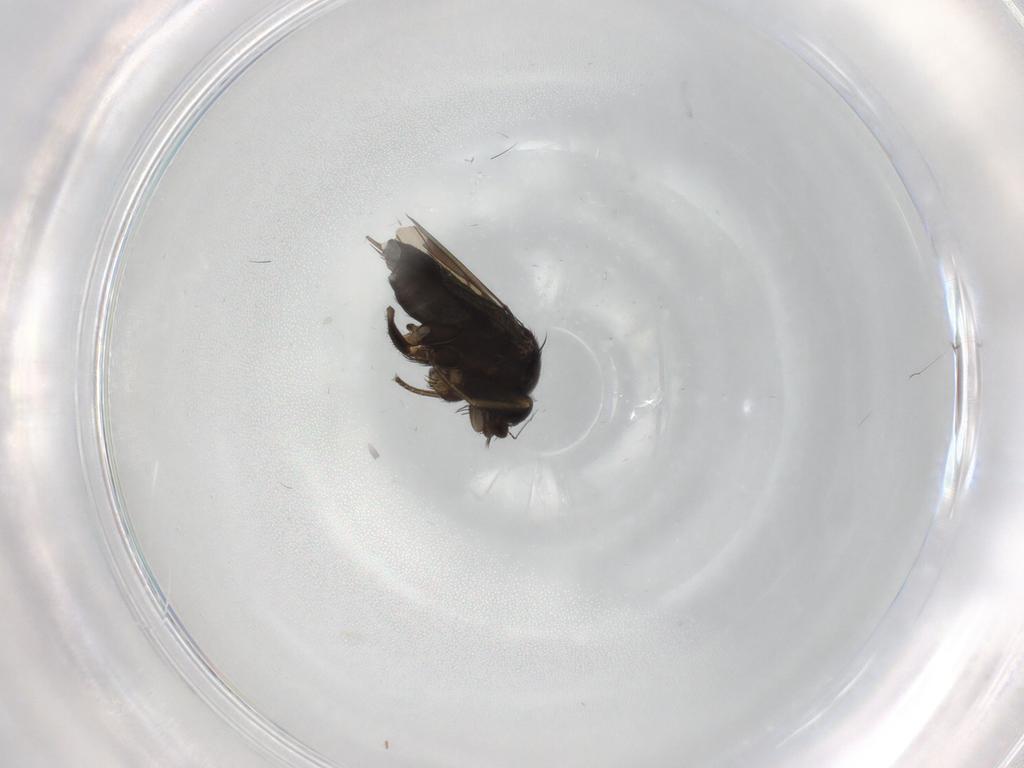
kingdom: Animalia
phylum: Arthropoda
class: Insecta
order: Diptera
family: Phoridae
